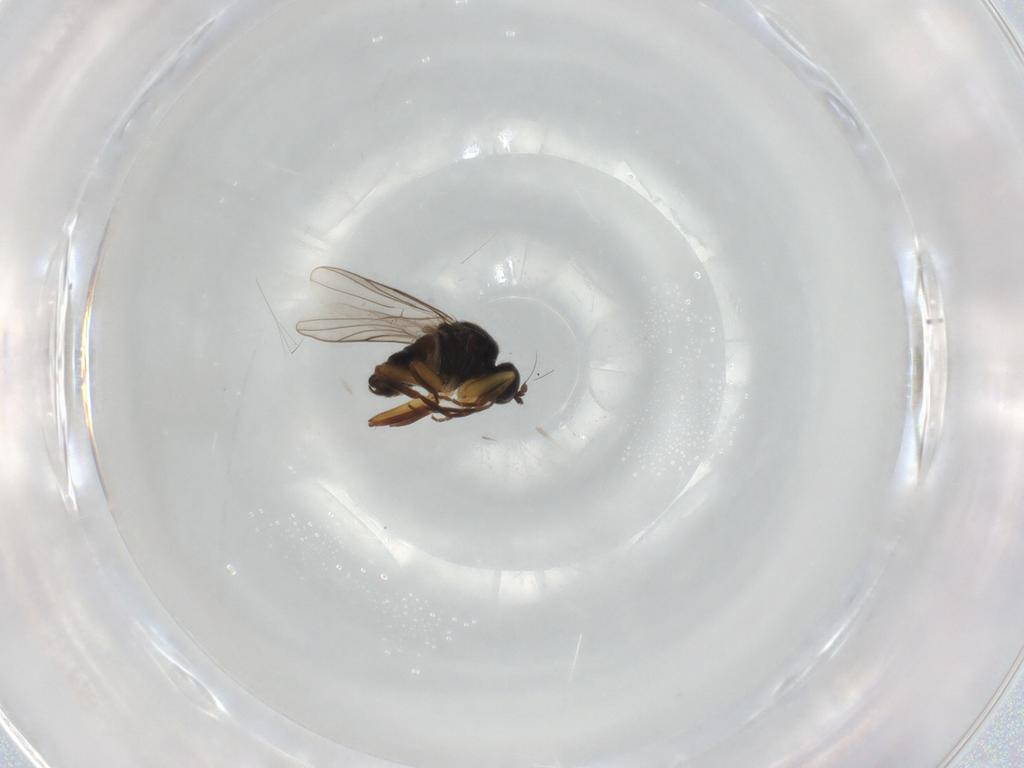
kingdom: Animalia
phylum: Arthropoda
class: Insecta
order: Diptera
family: Hybotidae
